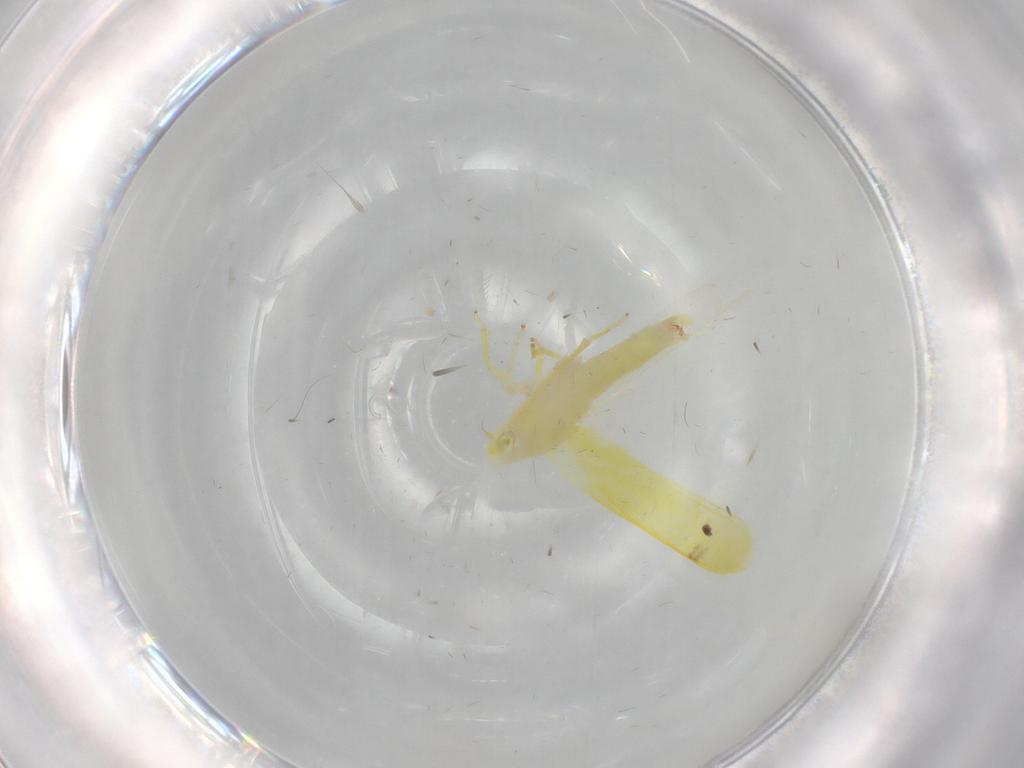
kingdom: Animalia
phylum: Arthropoda
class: Insecta
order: Hemiptera
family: Cicadellidae
